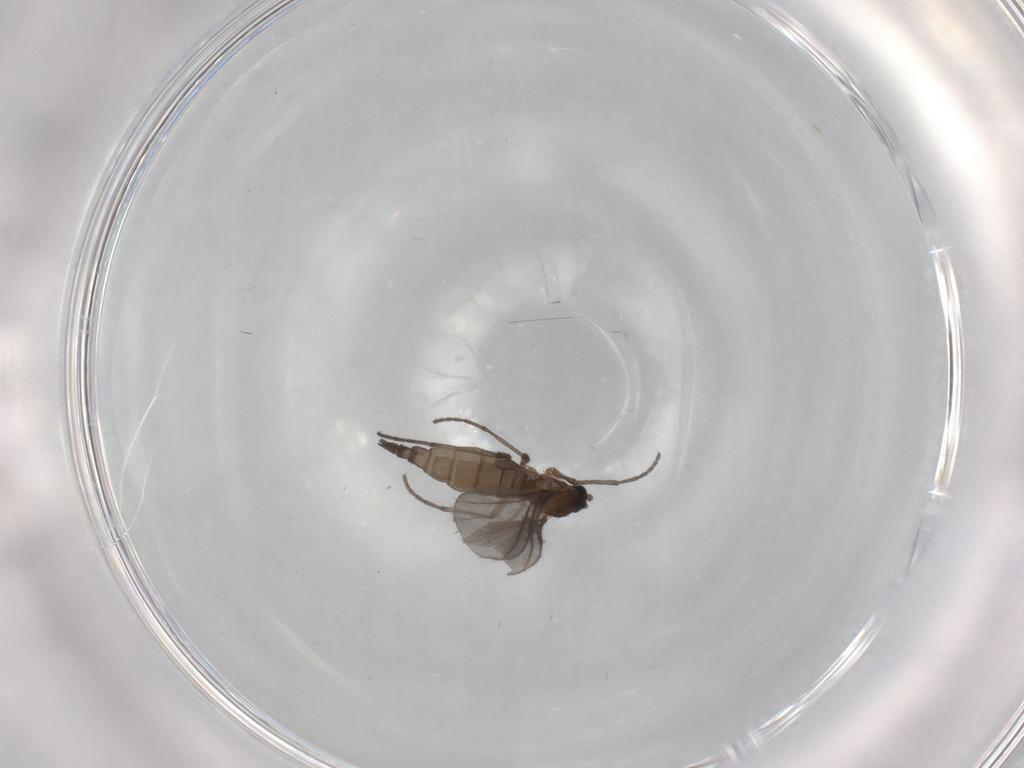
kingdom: Animalia
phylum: Arthropoda
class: Insecta
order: Diptera
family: Sciaridae
